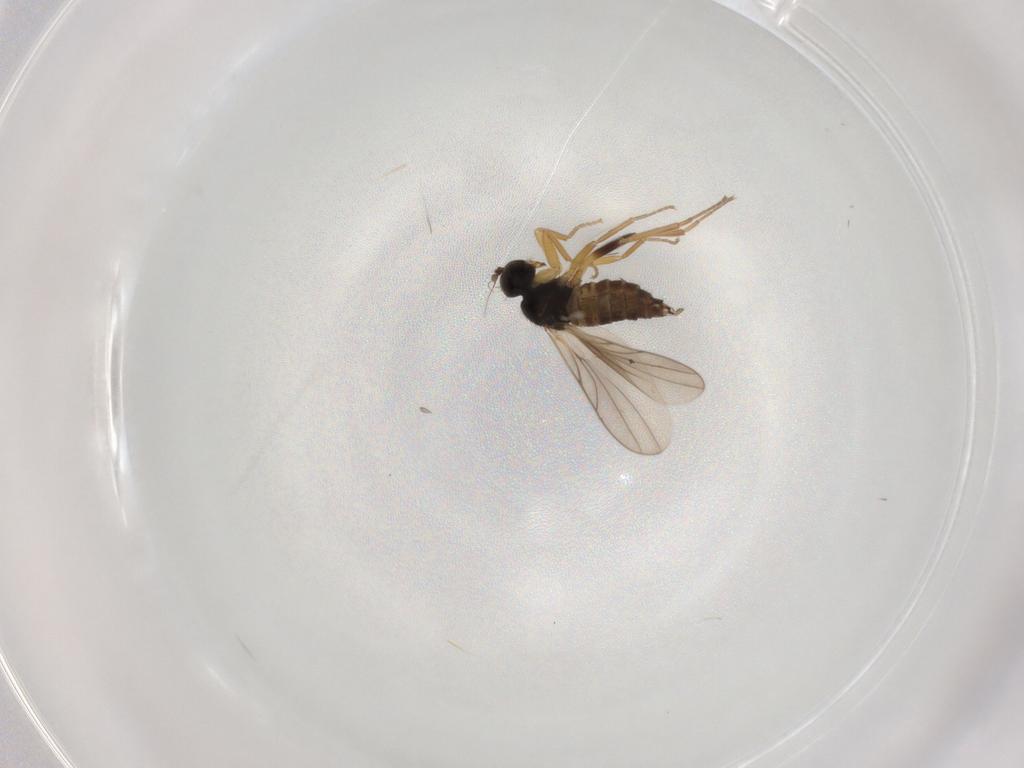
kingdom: Animalia
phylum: Arthropoda
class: Insecta
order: Diptera
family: Hybotidae
